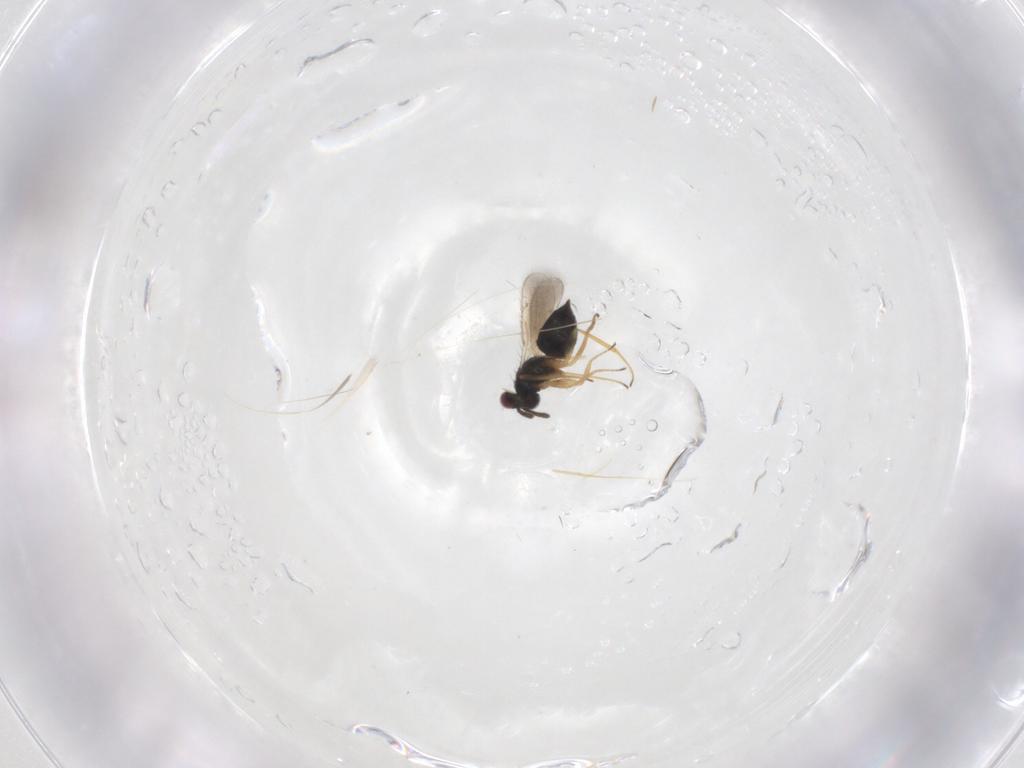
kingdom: Animalia
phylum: Arthropoda
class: Insecta
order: Hymenoptera
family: Tetracampidae
